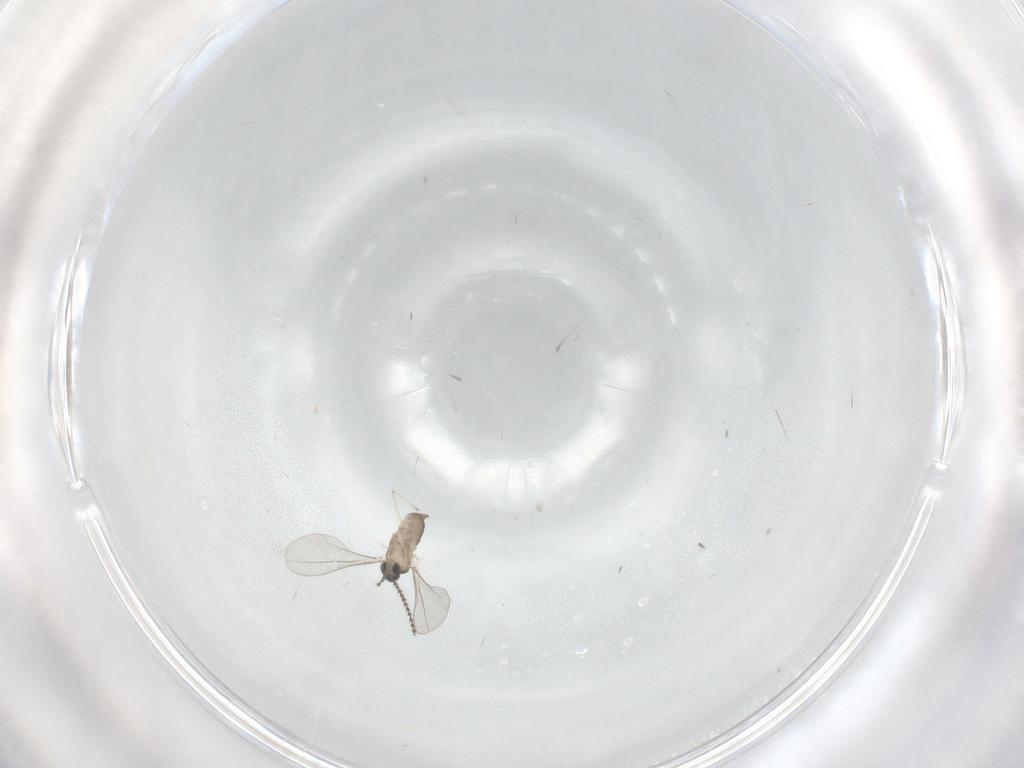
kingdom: Animalia
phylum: Arthropoda
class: Insecta
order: Diptera
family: Cecidomyiidae
